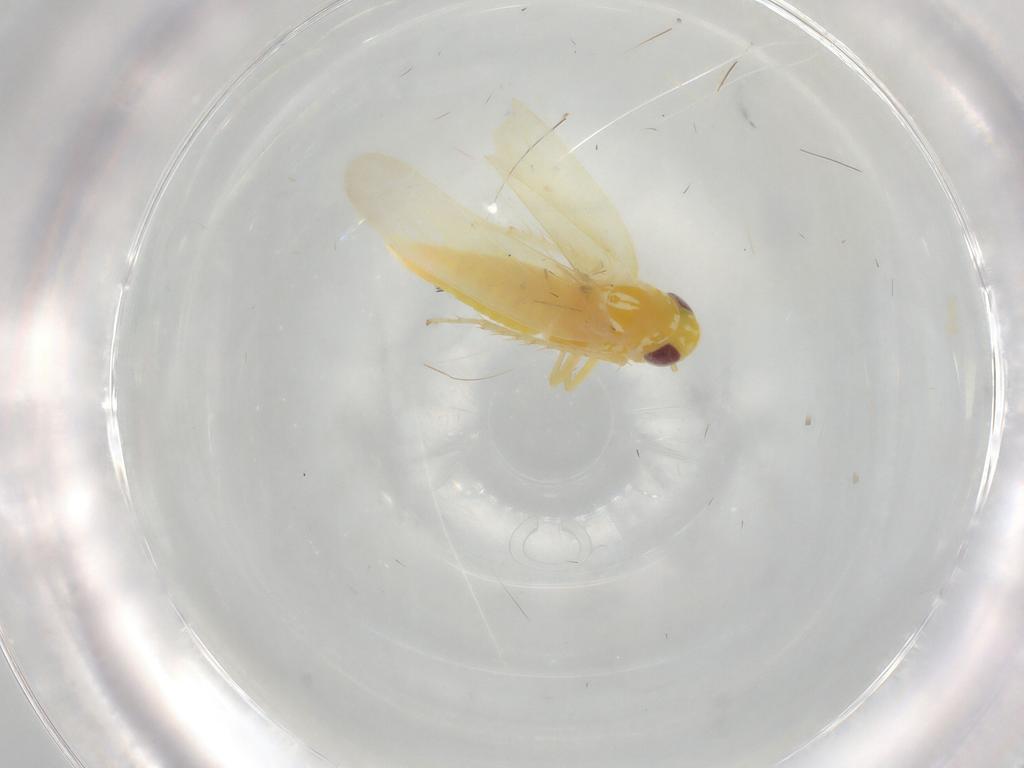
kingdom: Animalia
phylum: Arthropoda
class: Insecta
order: Hemiptera
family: Cicadellidae
